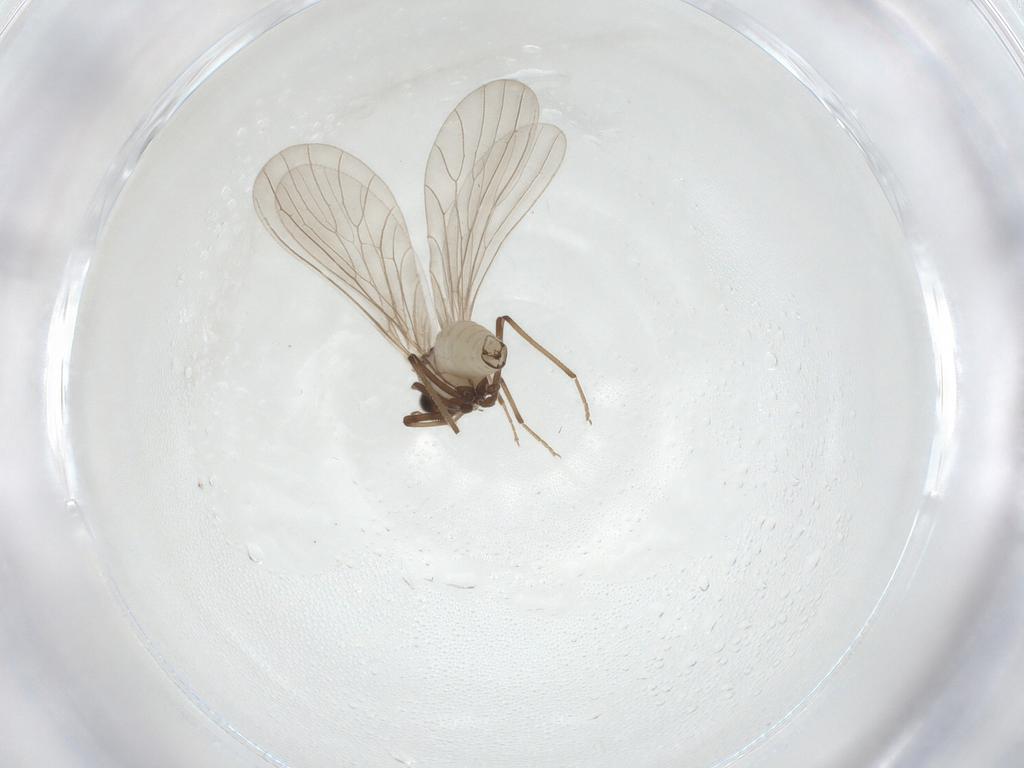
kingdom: Animalia
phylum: Arthropoda
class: Insecta
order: Neuroptera
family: Coniopterygidae
